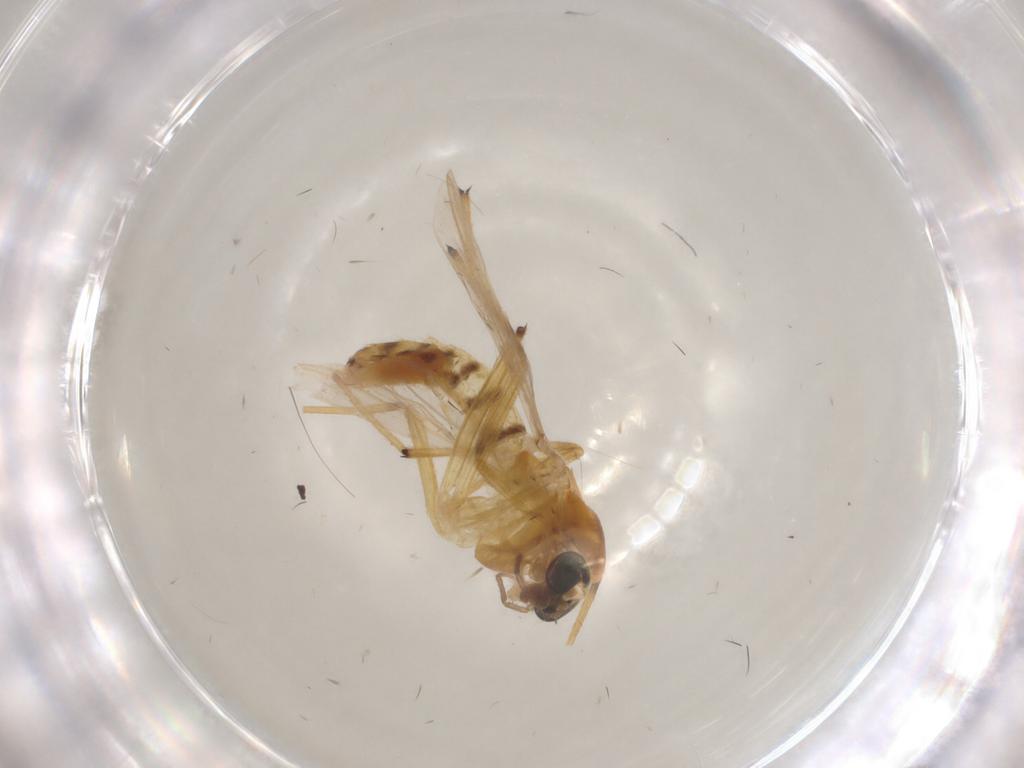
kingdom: Animalia
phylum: Arthropoda
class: Insecta
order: Diptera
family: Chironomidae
